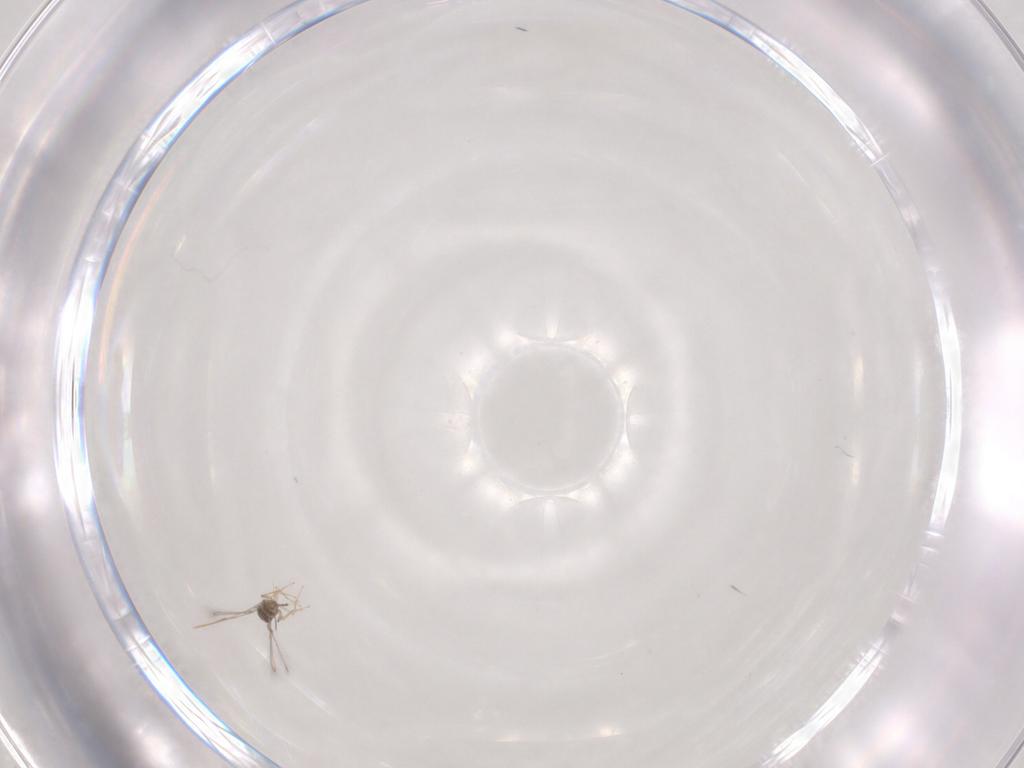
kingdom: Animalia
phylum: Arthropoda
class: Insecta
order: Hymenoptera
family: Mymaridae
